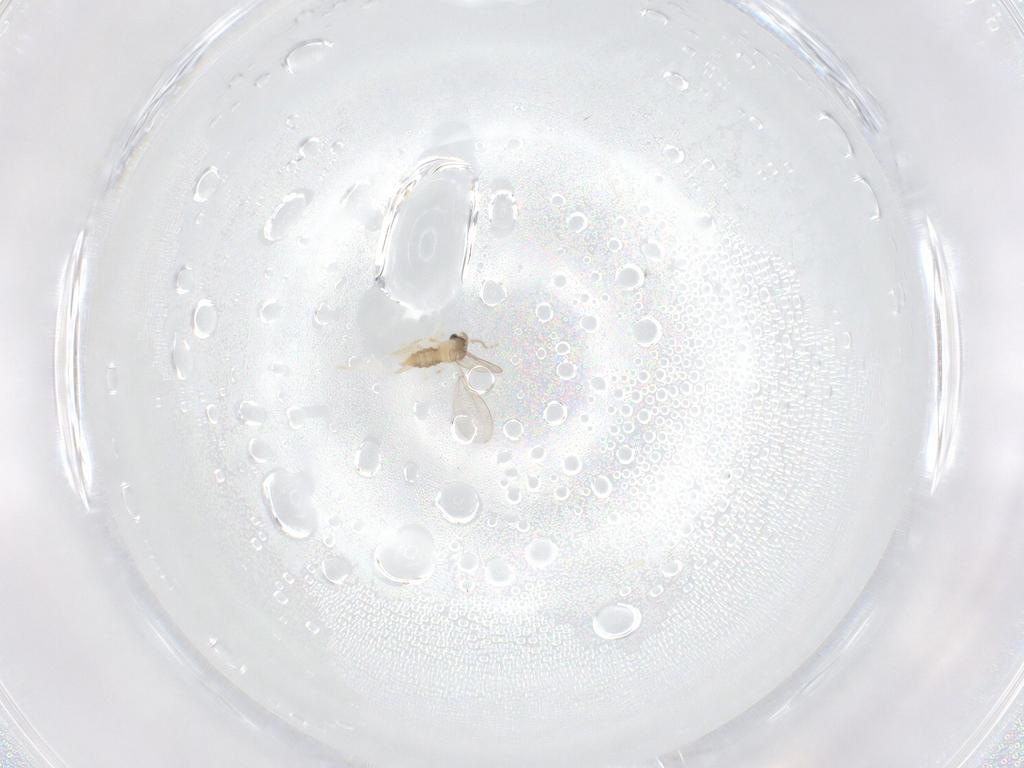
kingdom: Animalia
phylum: Arthropoda
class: Insecta
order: Diptera
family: Cecidomyiidae
